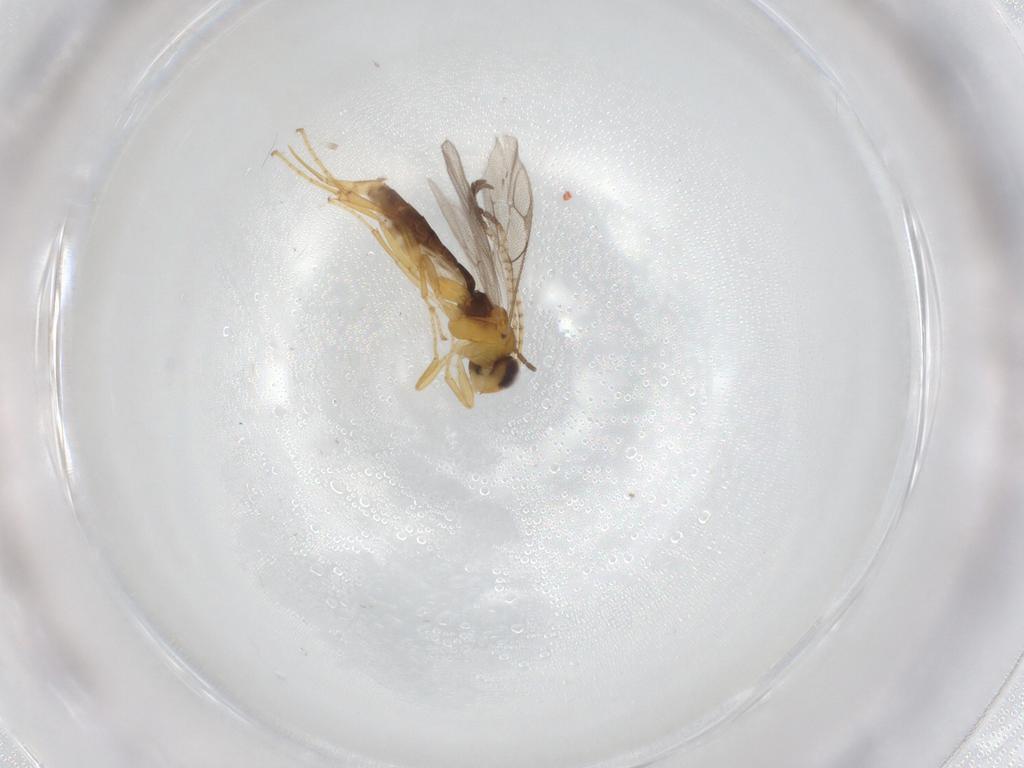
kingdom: Animalia
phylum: Arthropoda
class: Insecta
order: Hymenoptera
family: Ichneumonidae
